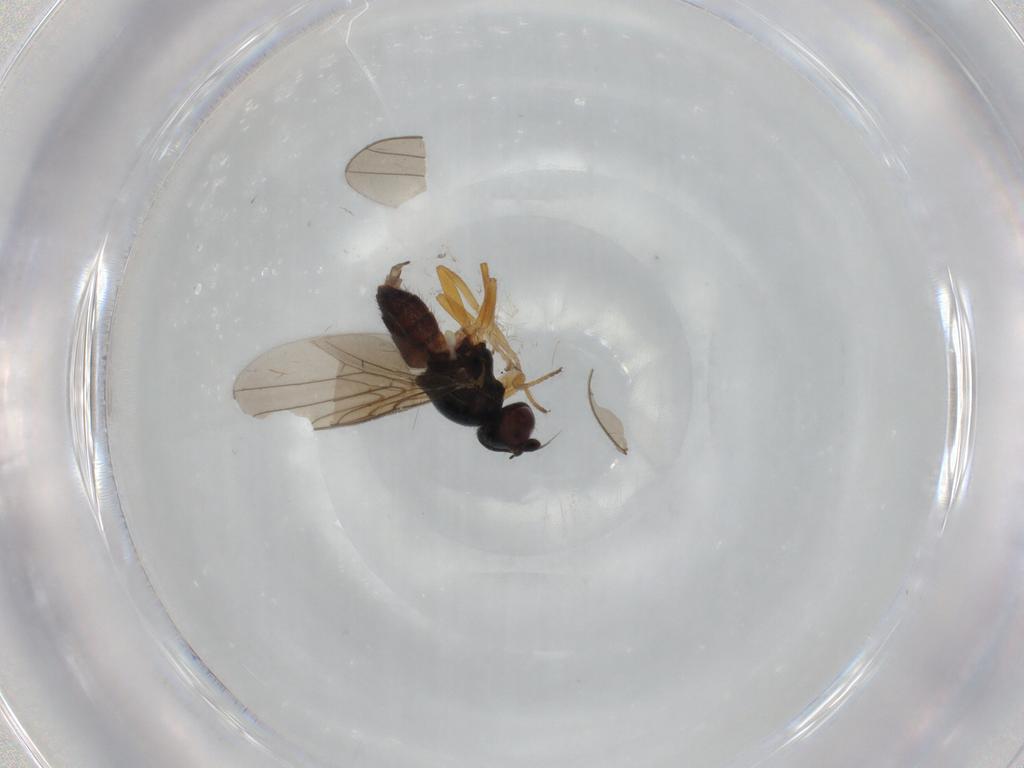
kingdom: Animalia
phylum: Arthropoda
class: Insecta
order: Diptera
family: Chloropidae
